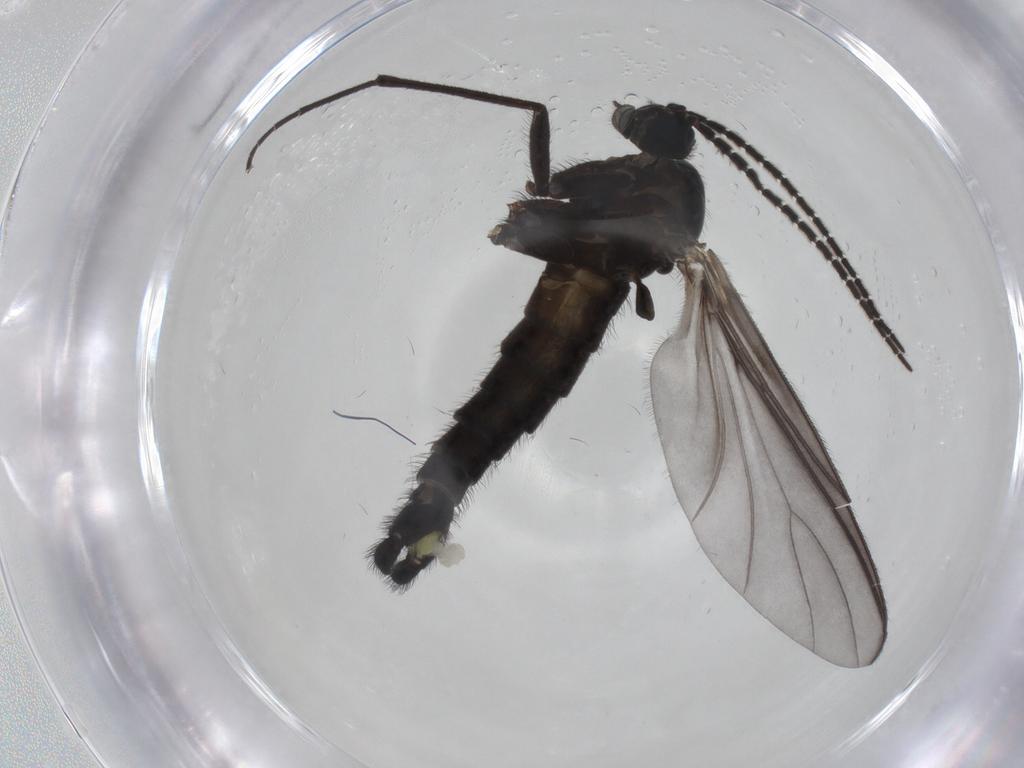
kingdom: Animalia
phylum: Arthropoda
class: Insecta
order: Diptera
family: Sciaridae
